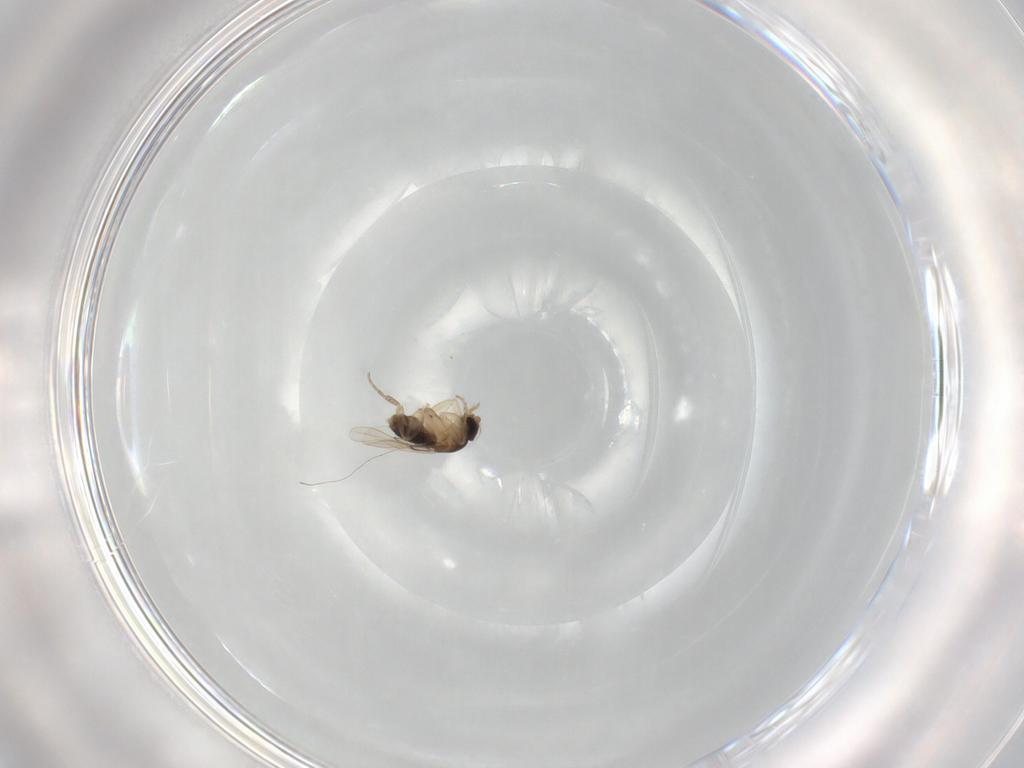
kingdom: Animalia
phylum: Arthropoda
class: Insecta
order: Diptera
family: Phoridae
